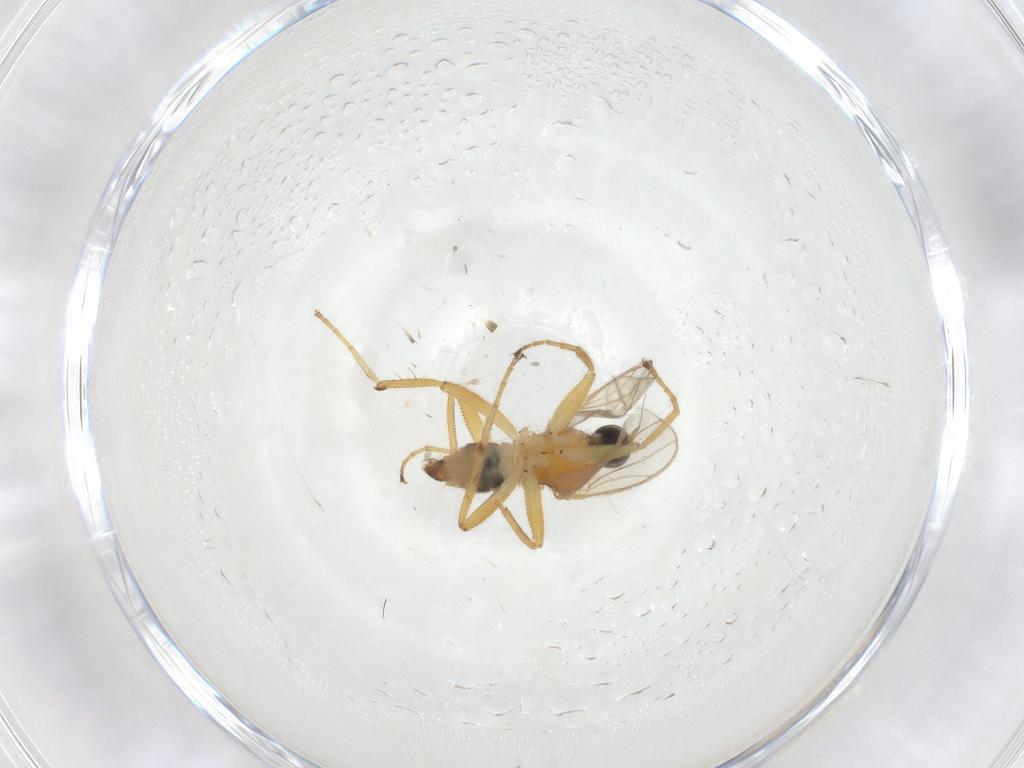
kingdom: Animalia
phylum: Arthropoda
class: Insecta
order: Diptera
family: Hybotidae
